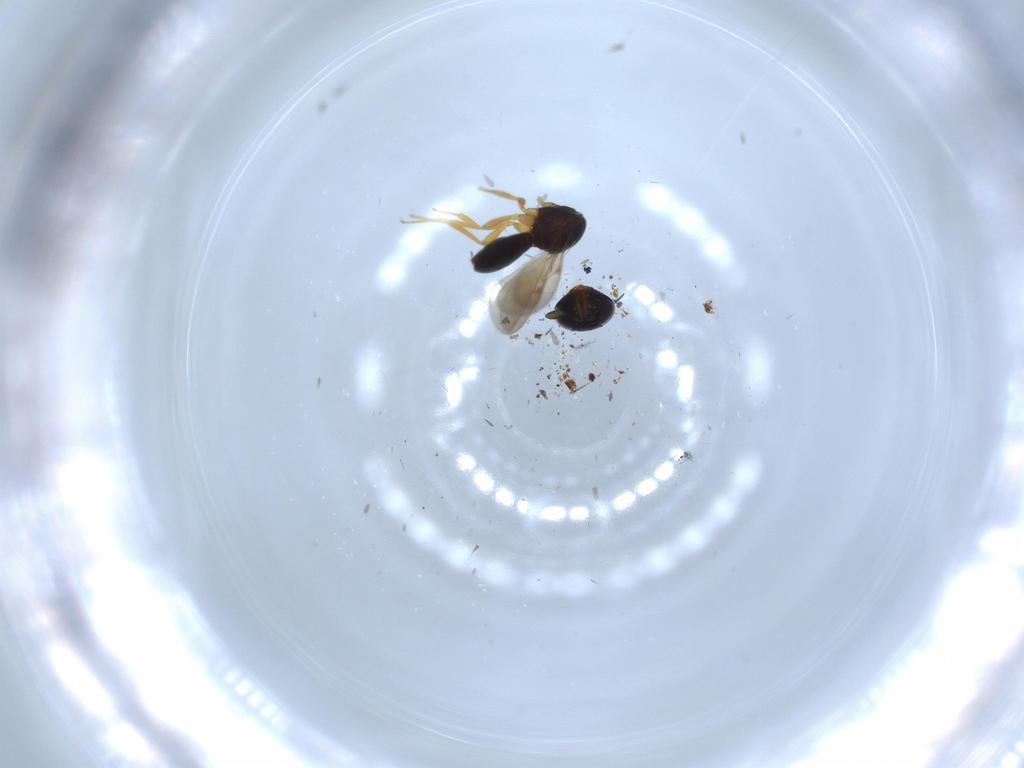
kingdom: Animalia
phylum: Arthropoda
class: Insecta
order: Hymenoptera
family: Scelionidae
